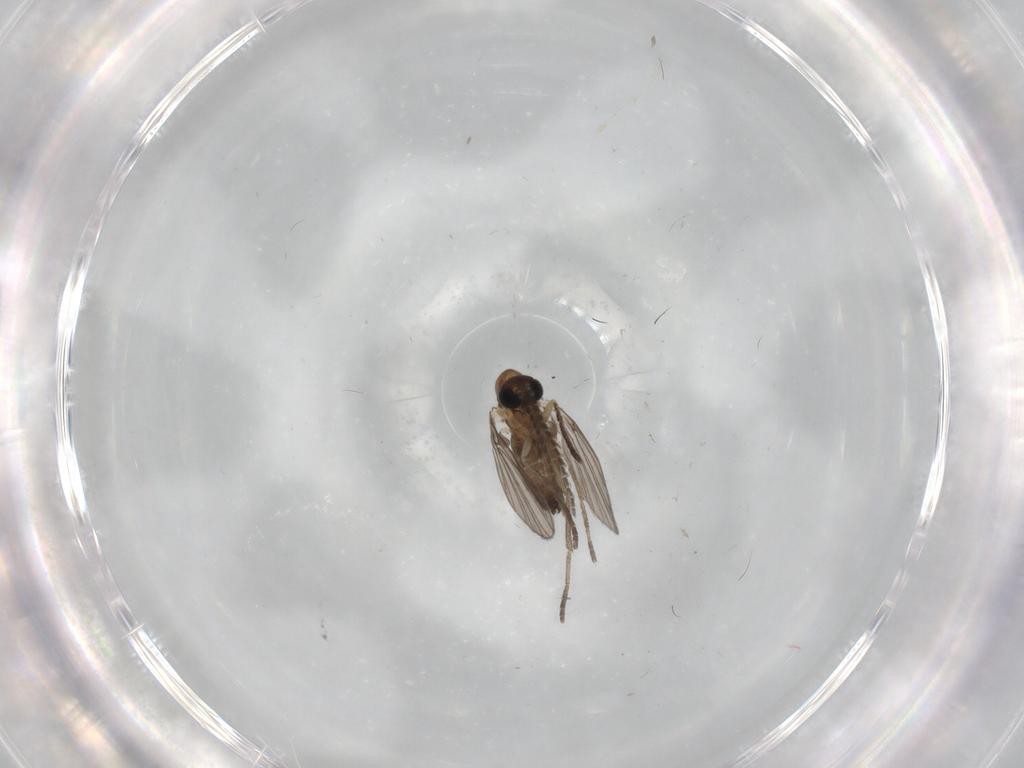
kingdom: Animalia
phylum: Arthropoda
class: Insecta
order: Diptera
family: Psychodidae
